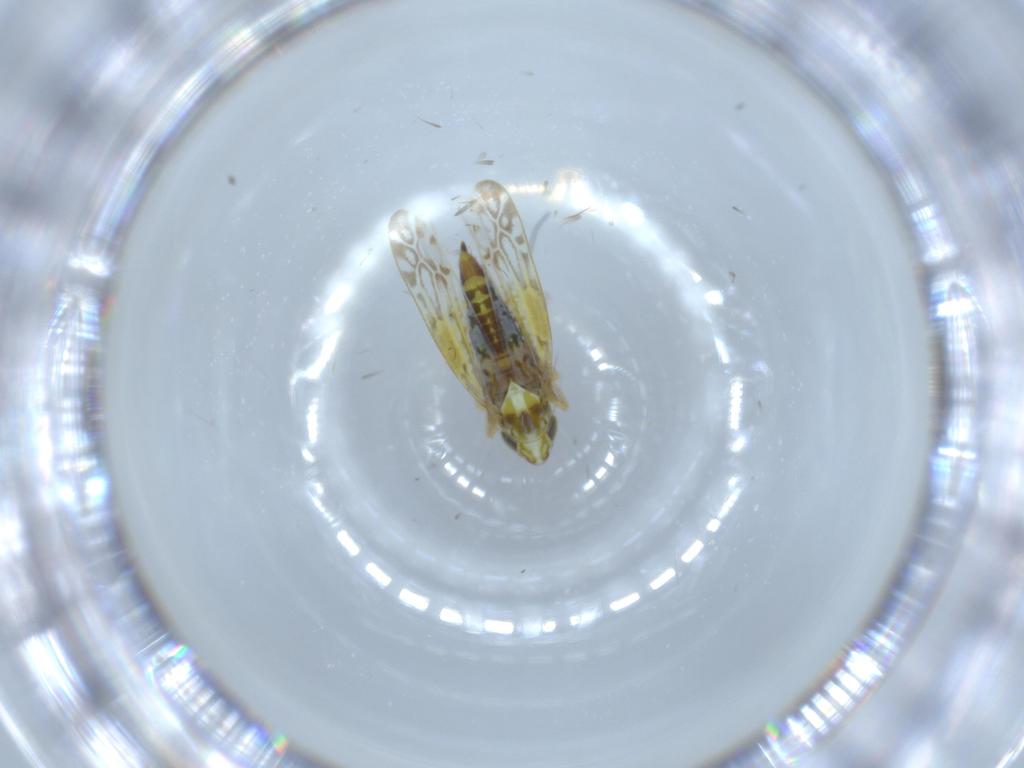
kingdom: Animalia
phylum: Arthropoda
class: Insecta
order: Hemiptera
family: Cicadellidae
